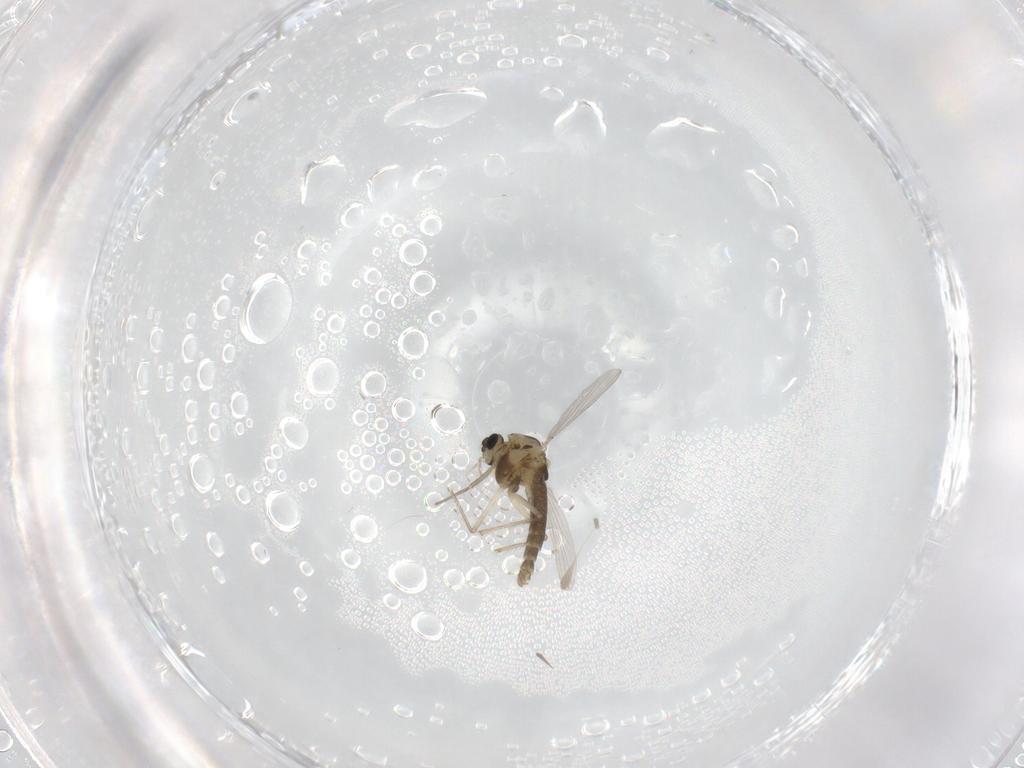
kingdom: Animalia
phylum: Arthropoda
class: Insecta
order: Diptera
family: Chironomidae
